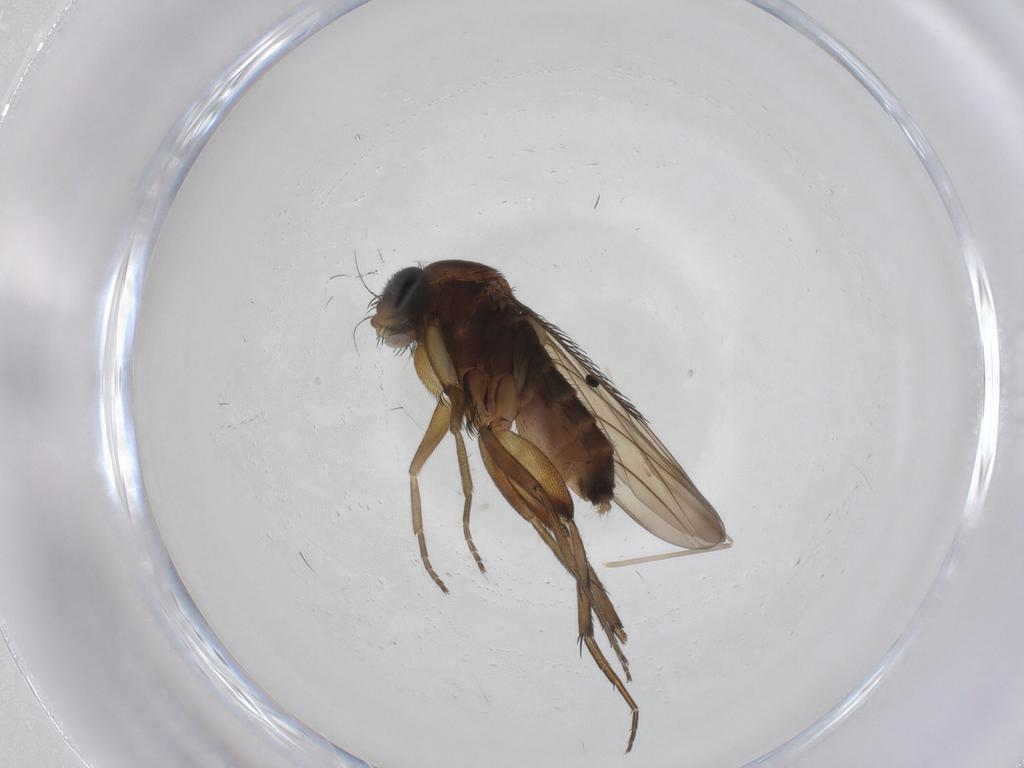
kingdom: Animalia
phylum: Arthropoda
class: Insecta
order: Diptera
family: Phoridae
